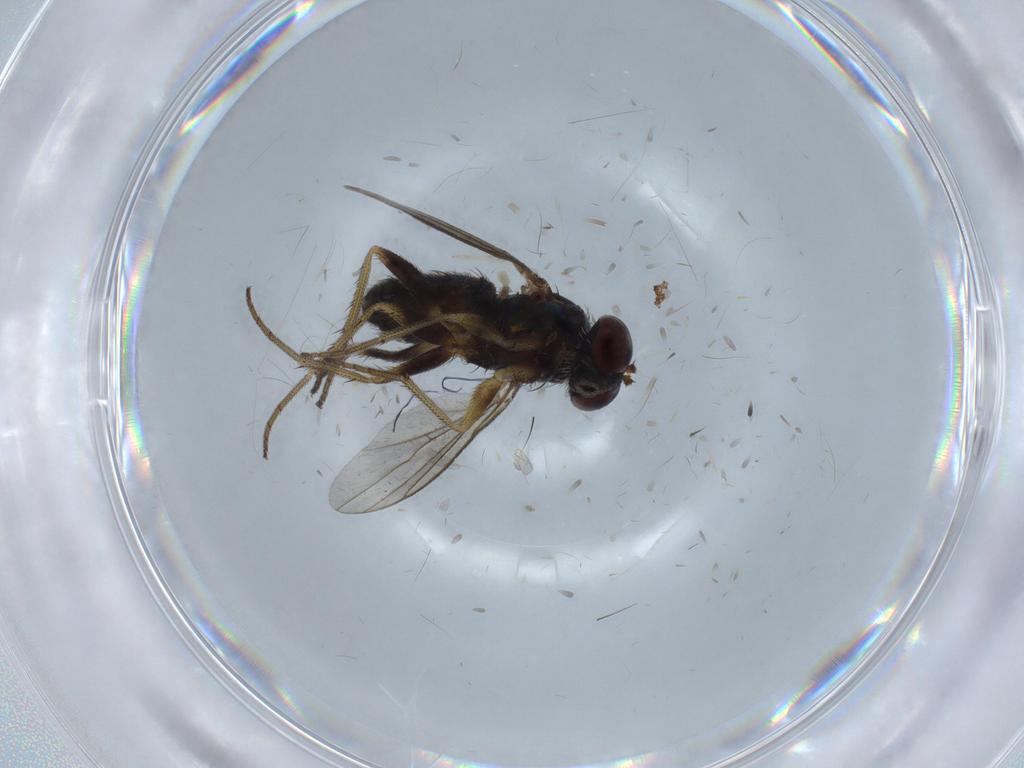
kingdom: Animalia
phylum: Arthropoda
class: Insecta
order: Diptera
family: Chironomidae
